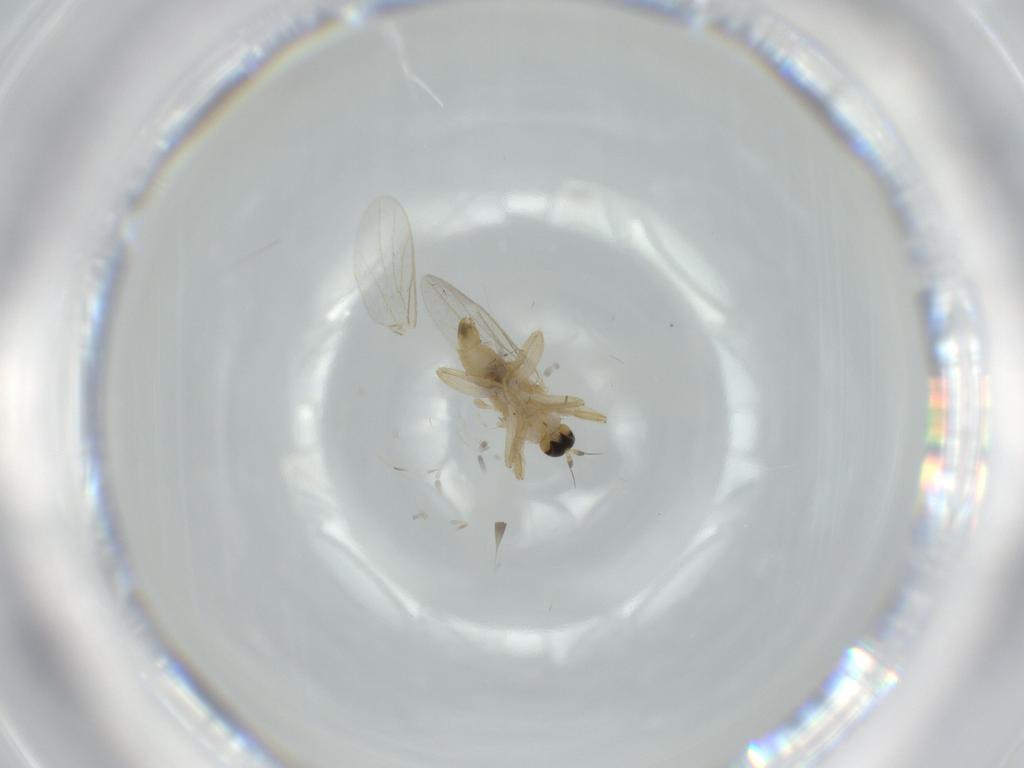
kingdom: Animalia
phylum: Arthropoda
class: Insecta
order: Diptera
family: Hybotidae
